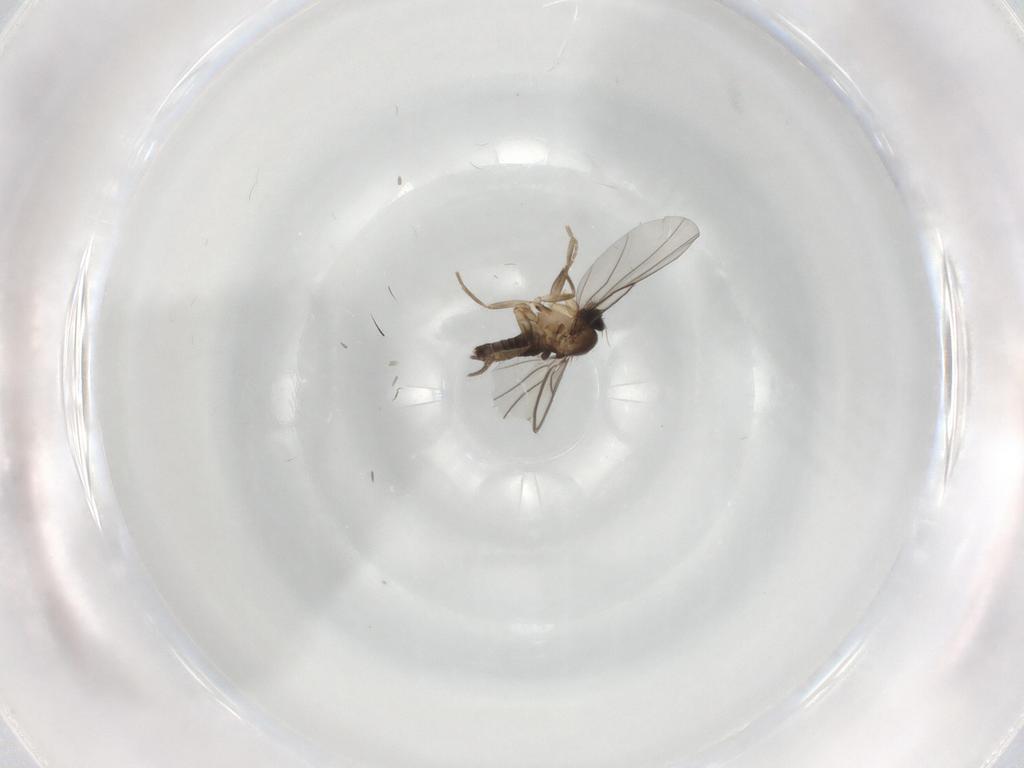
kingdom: Animalia
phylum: Arthropoda
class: Insecta
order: Diptera
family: Phoridae
